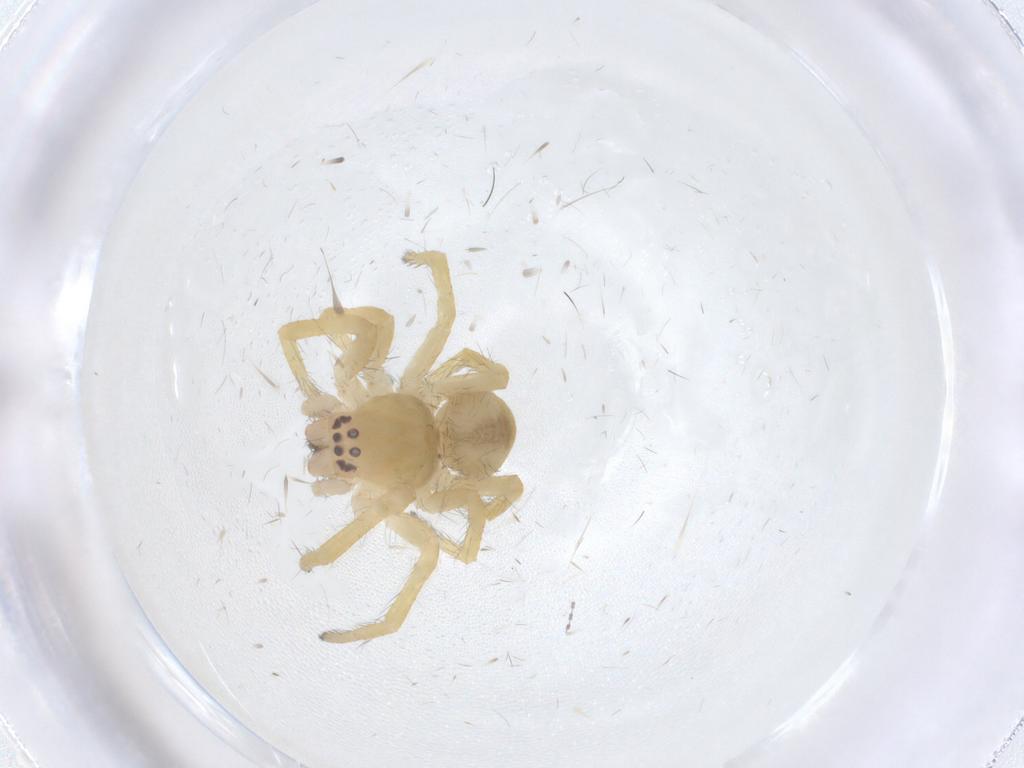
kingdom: Animalia
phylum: Arthropoda
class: Arachnida
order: Araneae
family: Mimetidae
